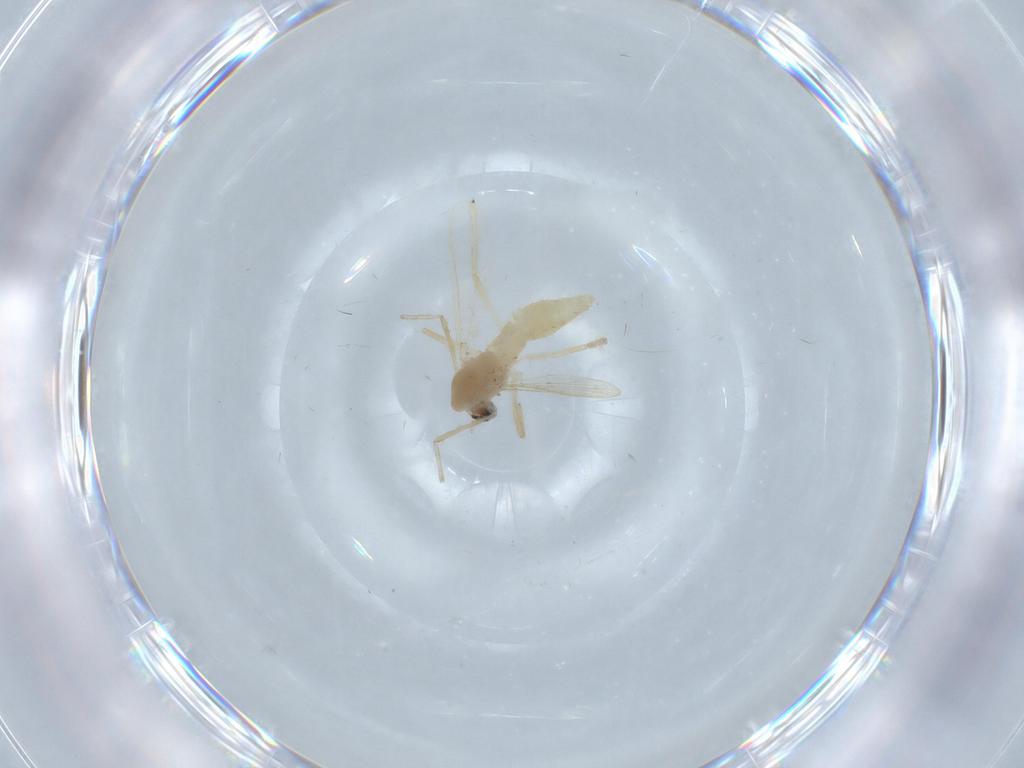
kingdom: Animalia
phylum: Arthropoda
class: Insecta
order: Diptera
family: Chironomidae
